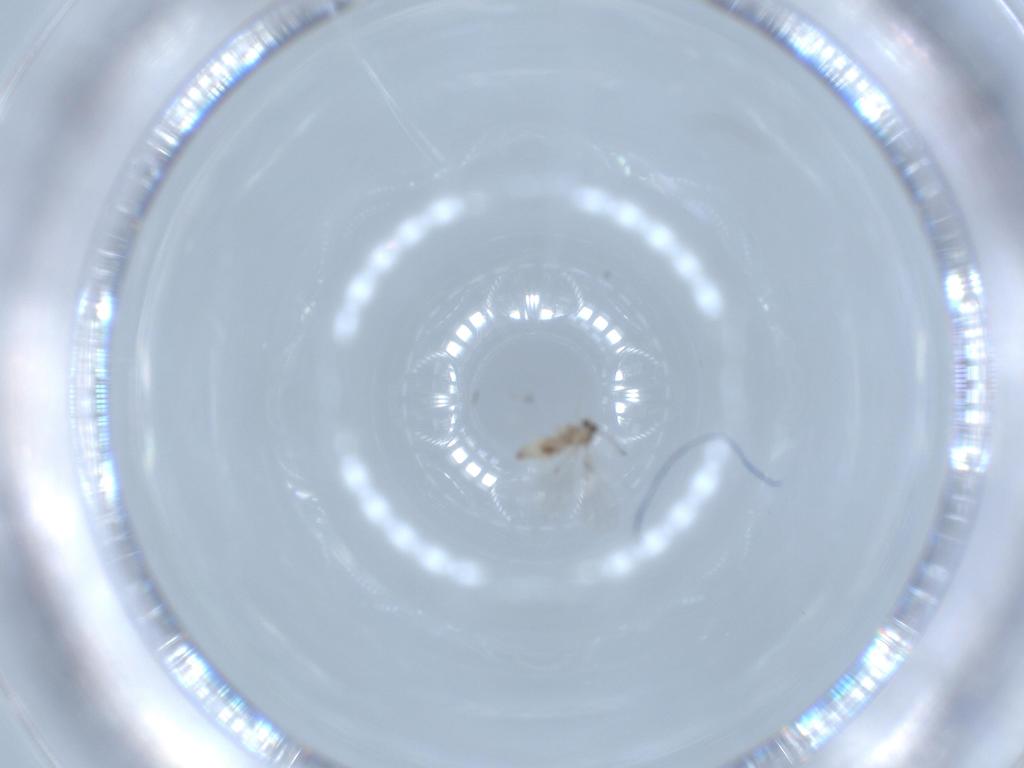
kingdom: Animalia
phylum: Arthropoda
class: Insecta
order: Diptera
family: Cecidomyiidae
